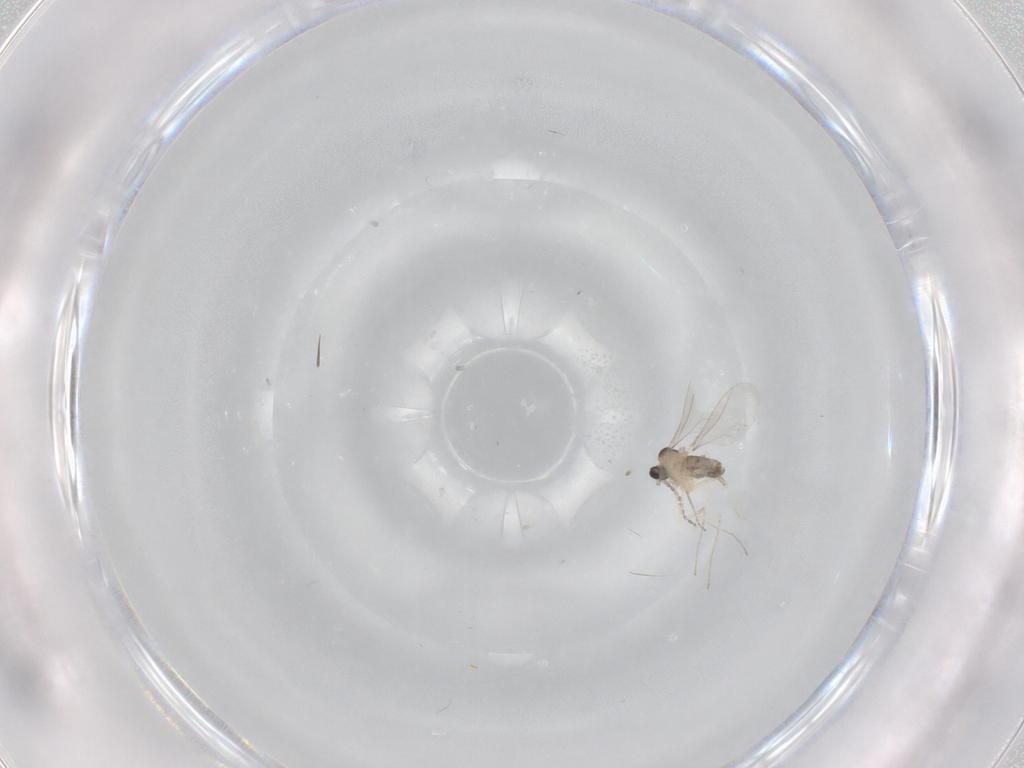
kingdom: Animalia
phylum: Arthropoda
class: Insecta
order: Diptera
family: Cecidomyiidae
